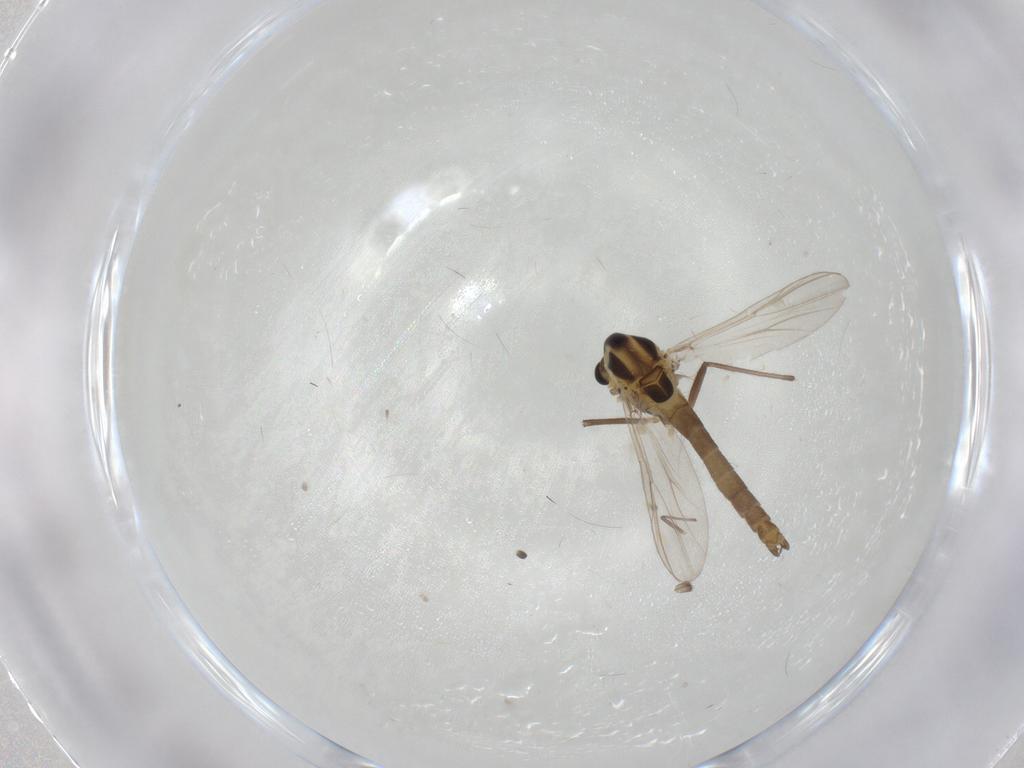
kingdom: Animalia
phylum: Arthropoda
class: Insecta
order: Diptera
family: Chironomidae
